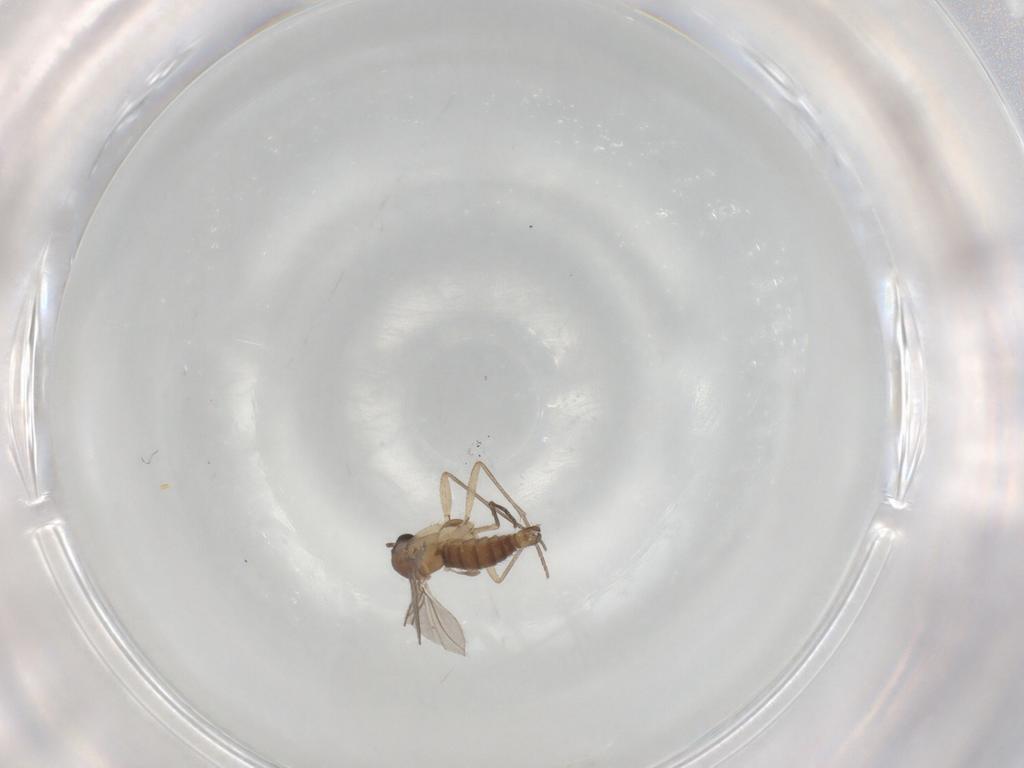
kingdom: Animalia
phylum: Arthropoda
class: Insecta
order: Diptera
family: Sciaridae
